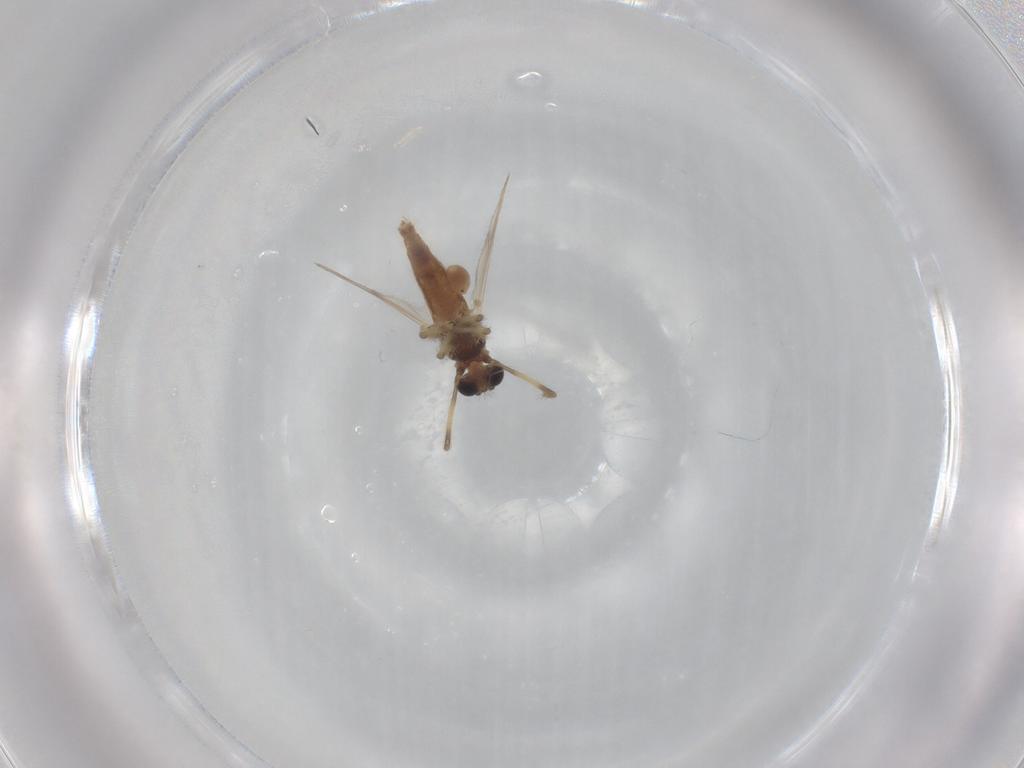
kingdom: Animalia
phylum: Arthropoda
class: Insecta
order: Diptera
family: Chironomidae
